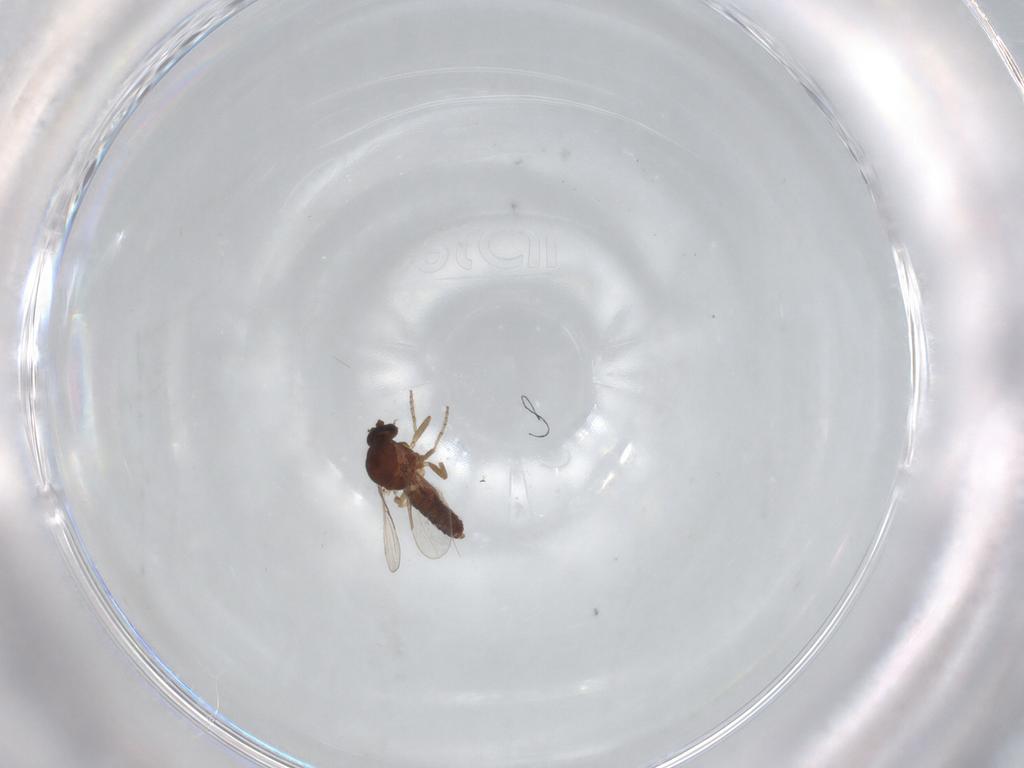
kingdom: Animalia
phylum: Arthropoda
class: Insecta
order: Diptera
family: Ceratopogonidae
